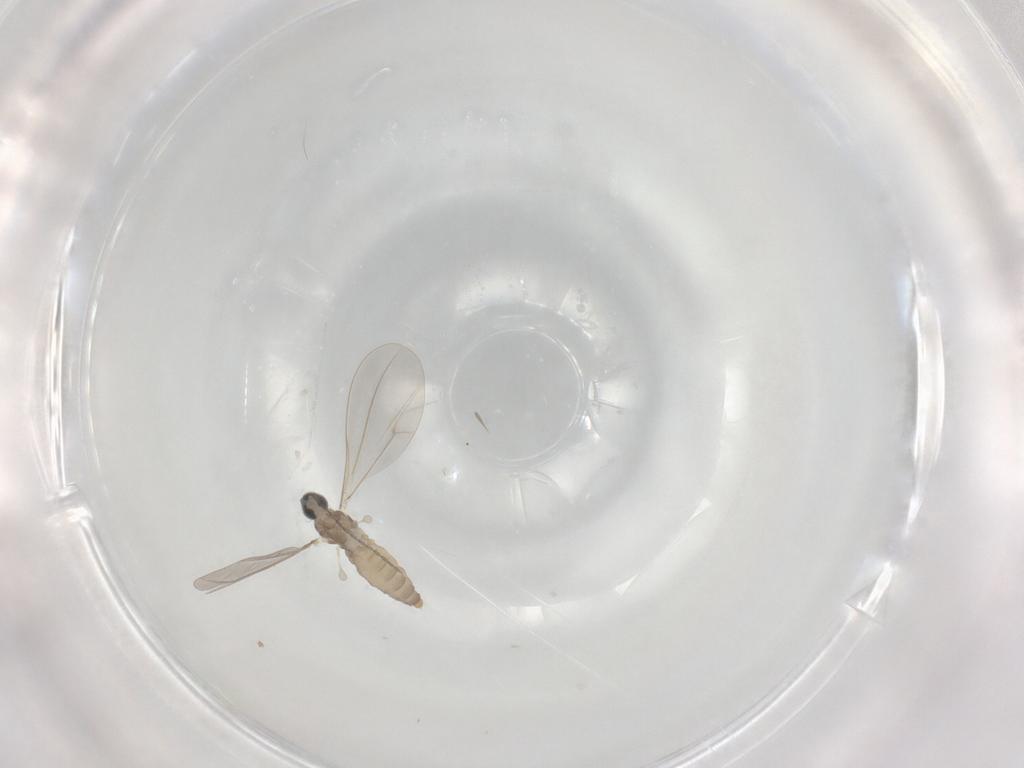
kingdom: Animalia
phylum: Arthropoda
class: Insecta
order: Diptera
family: Cecidomyiidae
